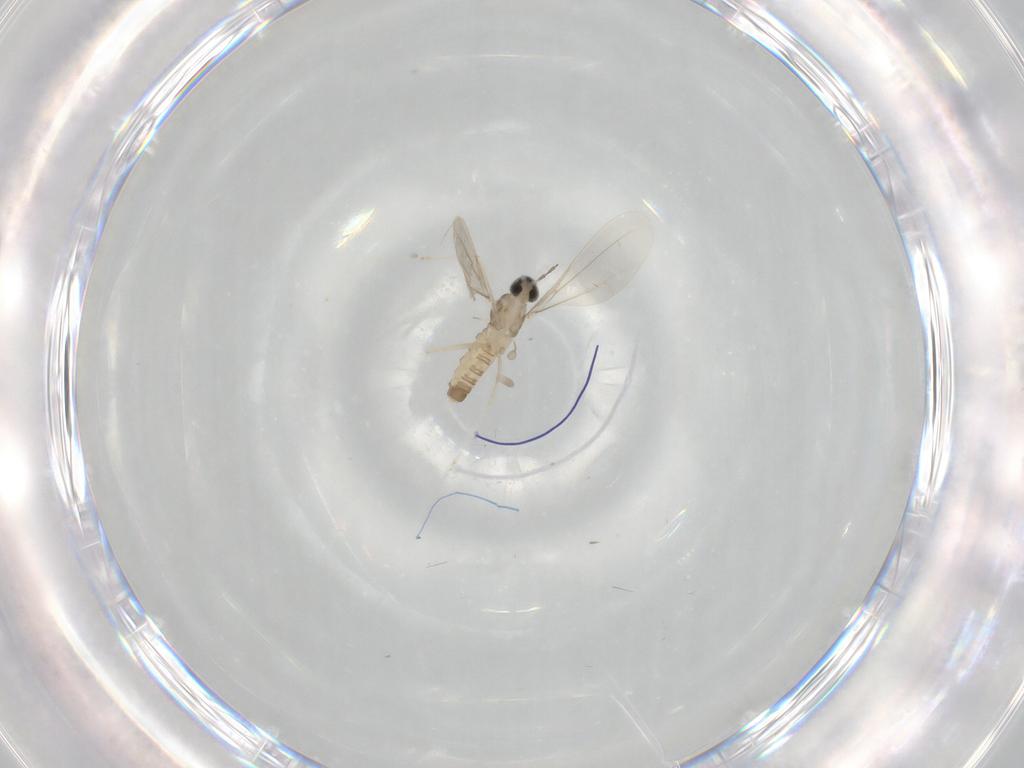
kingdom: Animalia
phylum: Arthropoda
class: Insecta
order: Diptera
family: Cecidomyiidae
